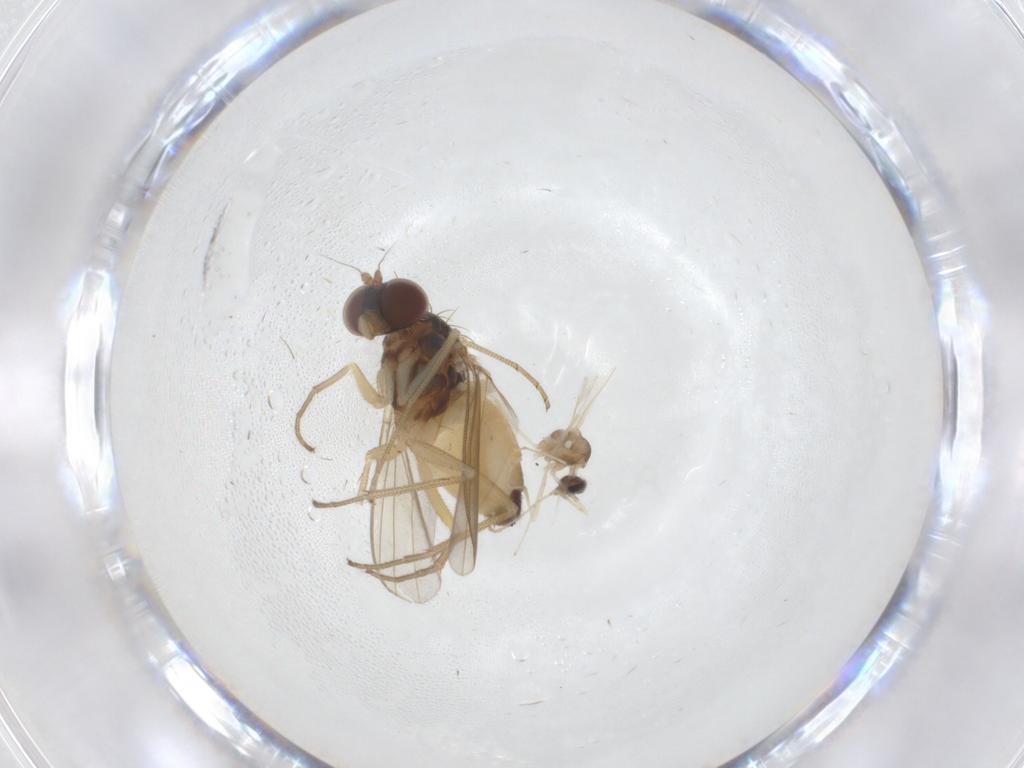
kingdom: Animalia
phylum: Arthropoda
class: Insecta
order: Diptera
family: Dolichopodidae
